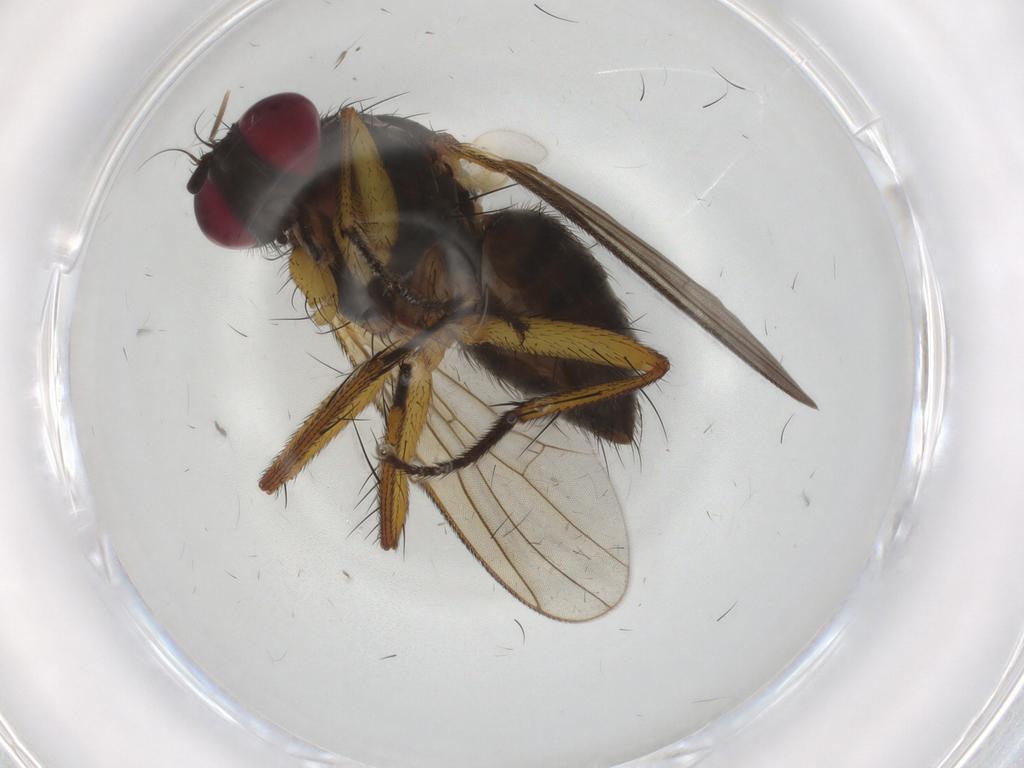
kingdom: Animalia
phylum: Arthropoda
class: Insecta
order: Diptera
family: Muscidae
